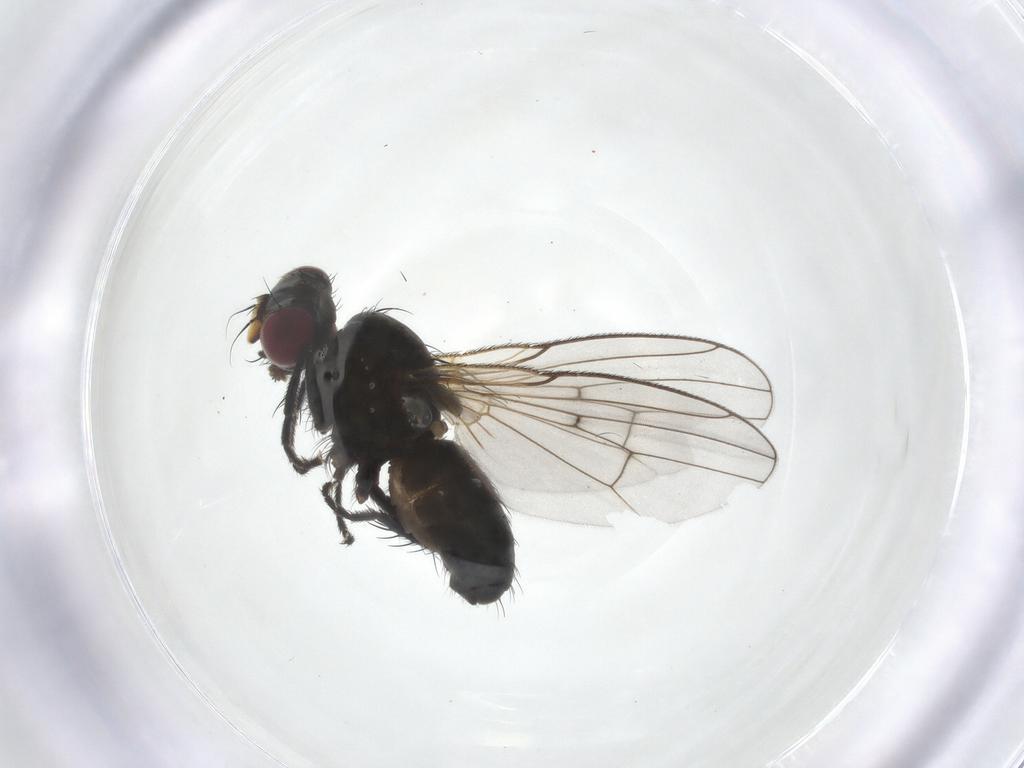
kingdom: Animalia
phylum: Arthropoda
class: Insecta
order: Diptera
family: Muscidae
